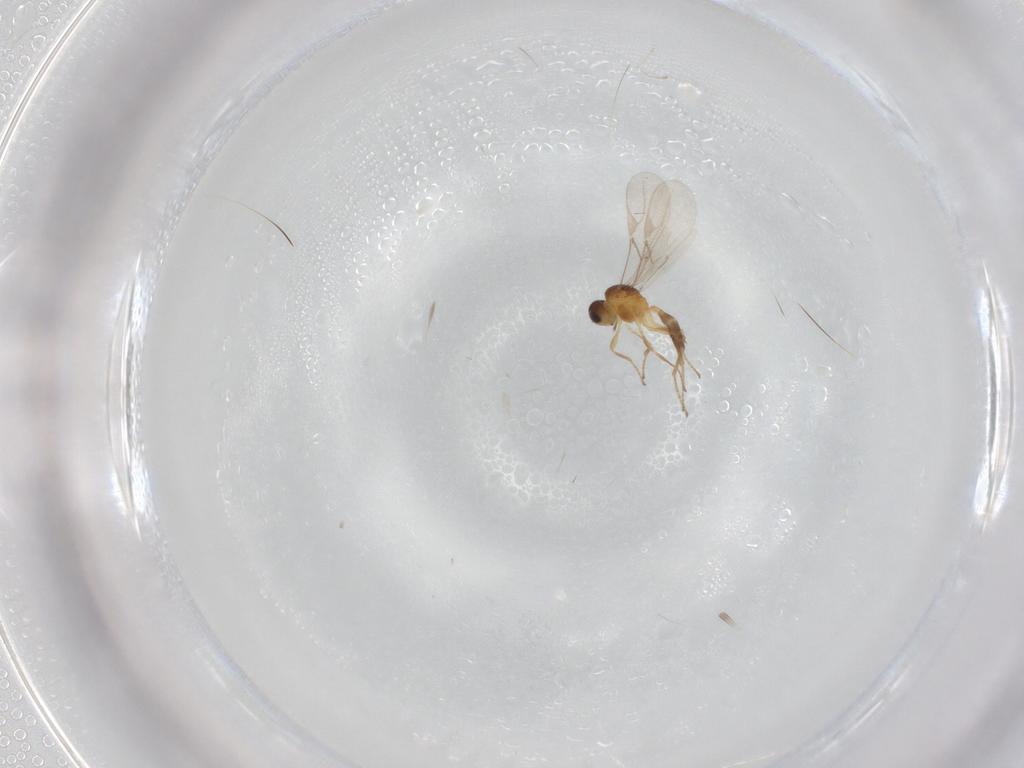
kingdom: Animalia
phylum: Arthropoda
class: Insecta
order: Hymenoptera
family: Braconidae
